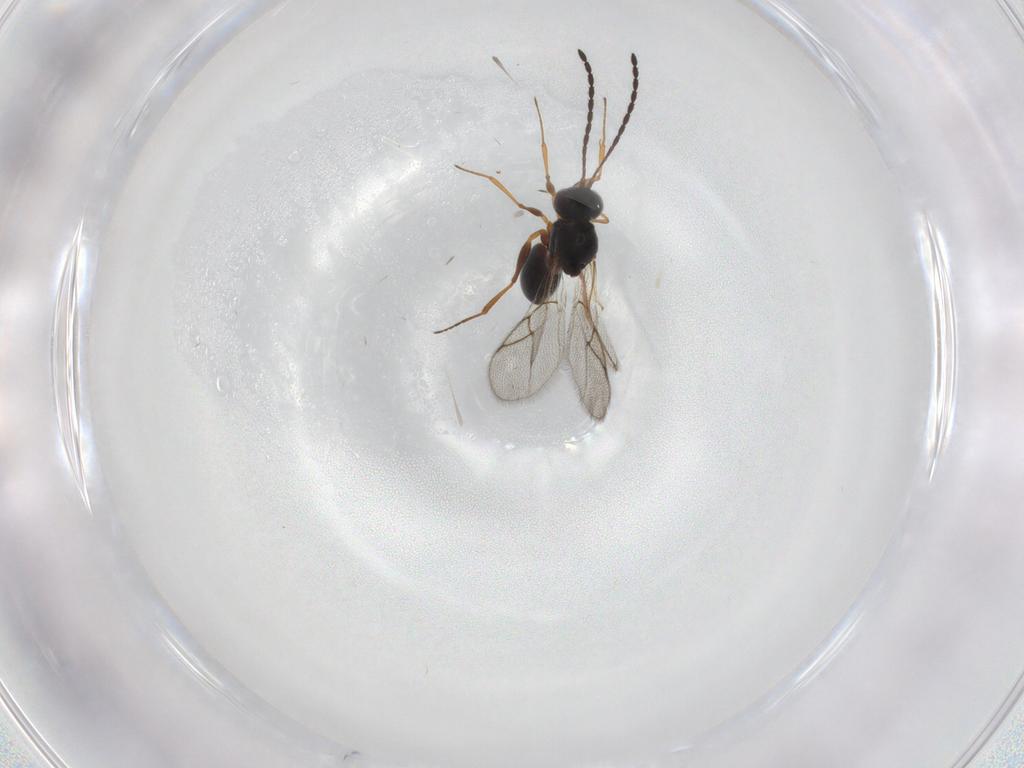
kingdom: Animalia
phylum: Arthropoda
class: Insecta
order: Hymenoptera
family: Figitidae
